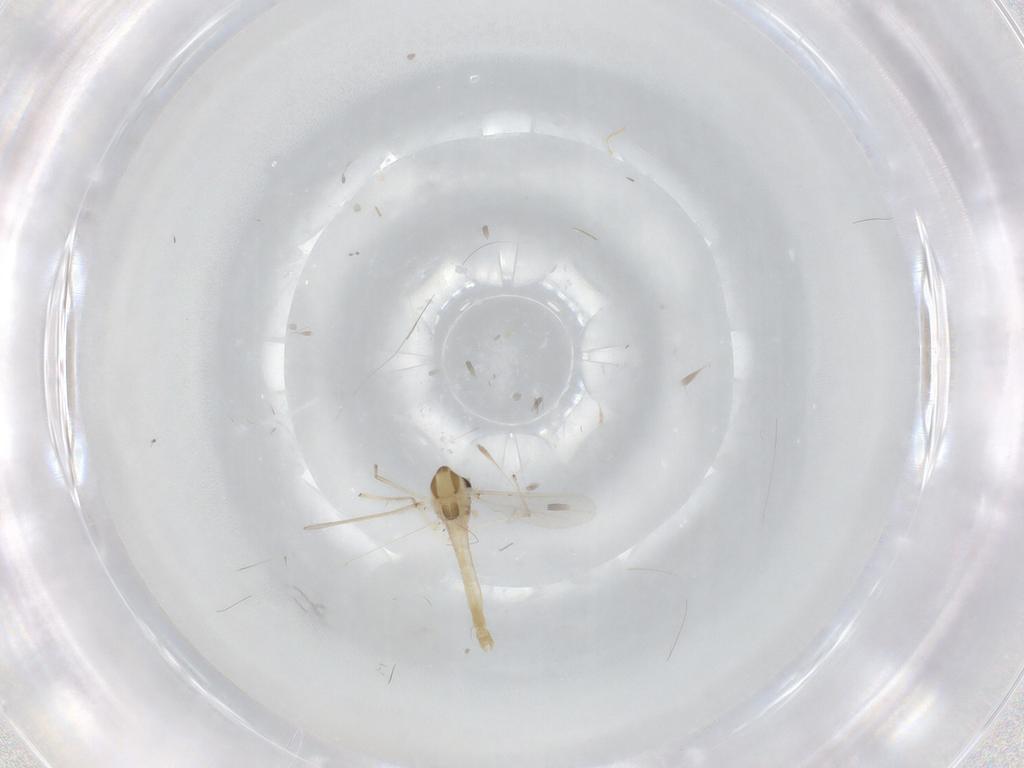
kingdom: Animalia
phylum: Arthropoda
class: Insecta
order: Diptera
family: Chironomidae
